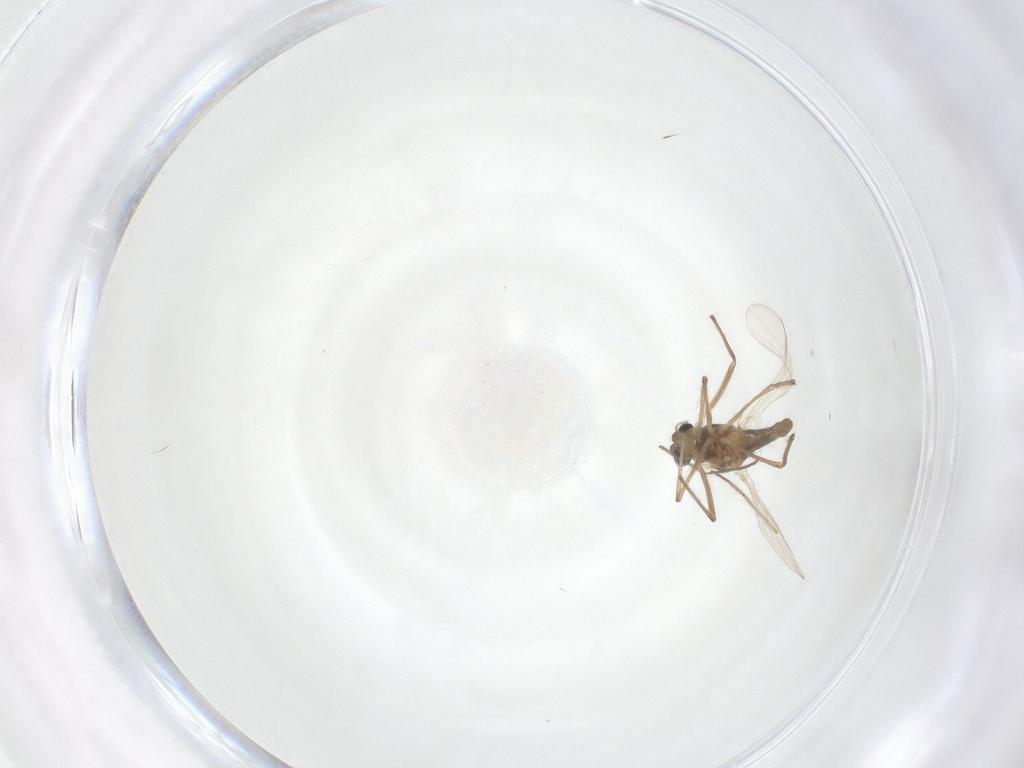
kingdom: Animalia
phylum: Arthropoda
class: Insecta
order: Diptera
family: Chironomidae
